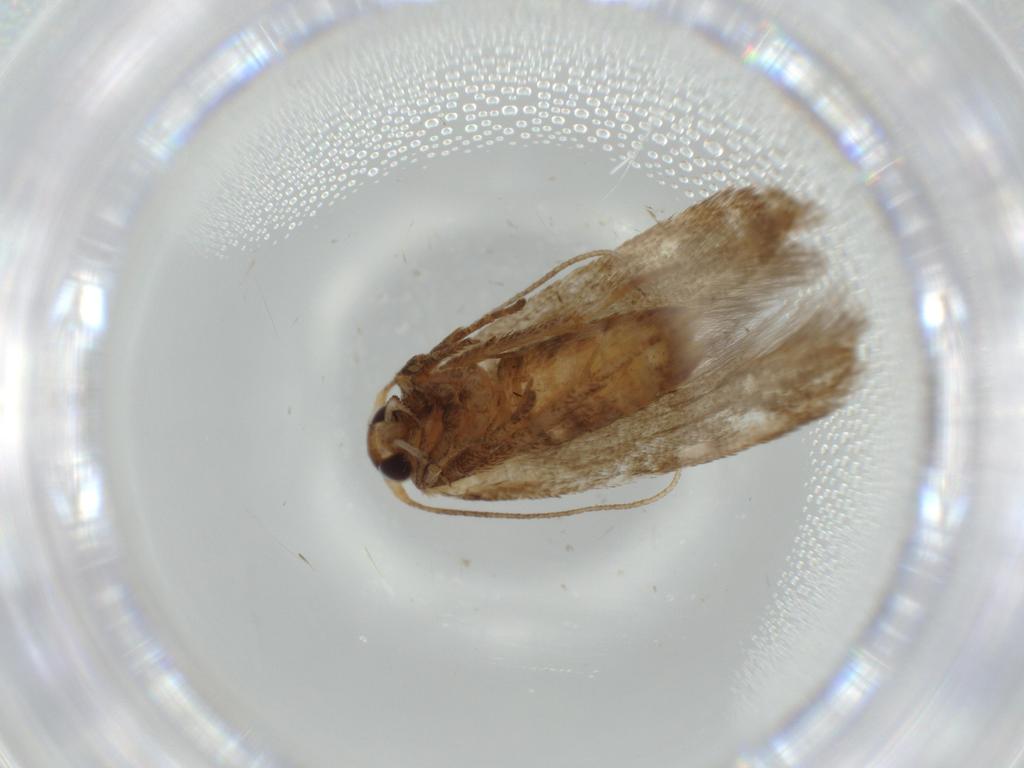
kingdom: Animalia
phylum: Arthropoda
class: Insecta
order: Lepidoptera
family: Coleophoridae
